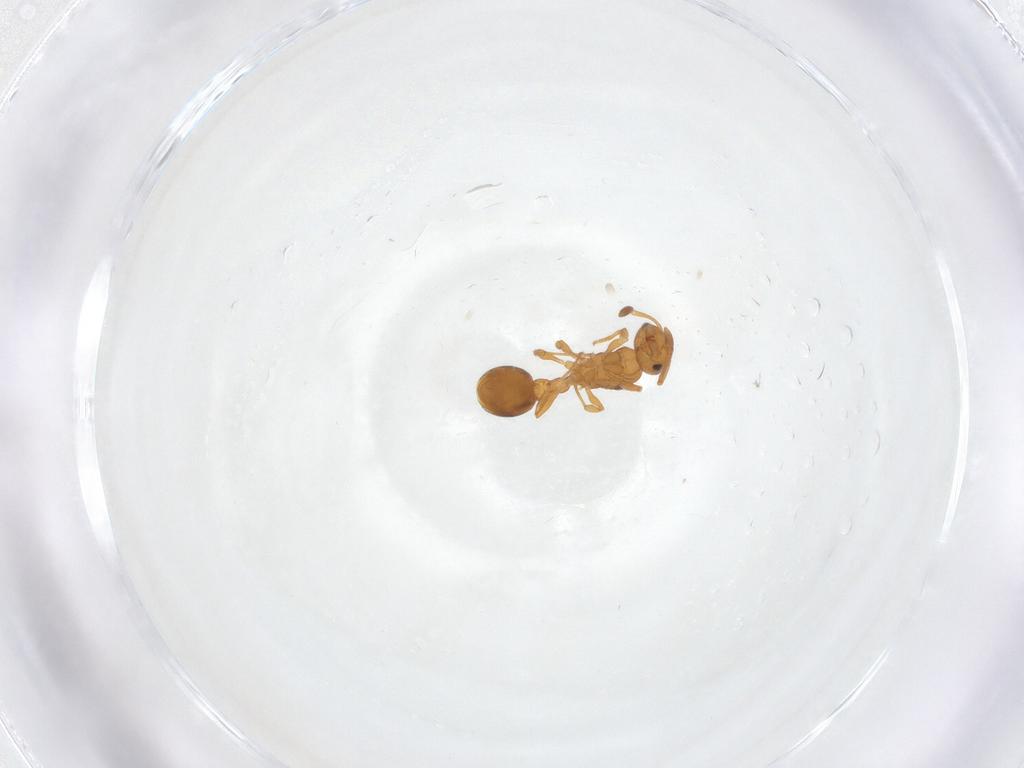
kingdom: Animalia
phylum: Arthropoda
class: Insecta
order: Hymenoptera
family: Formicidae
